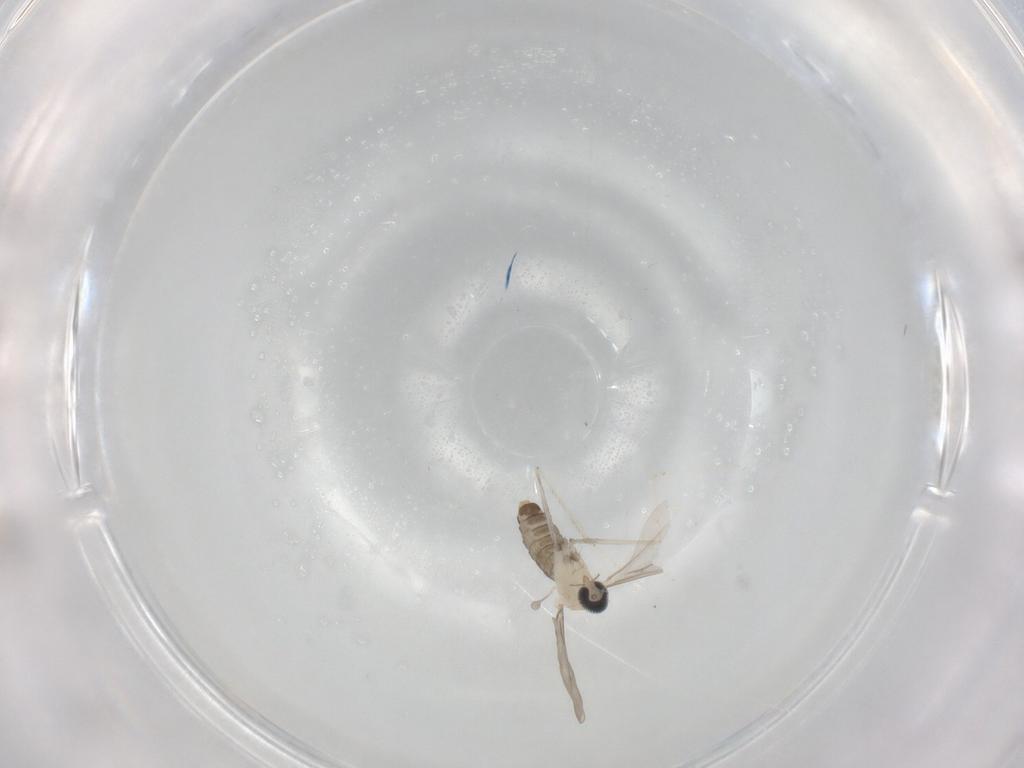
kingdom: Animalia
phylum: Arthropoda
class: Insecta
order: Diptera
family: Cecidomyiidae
